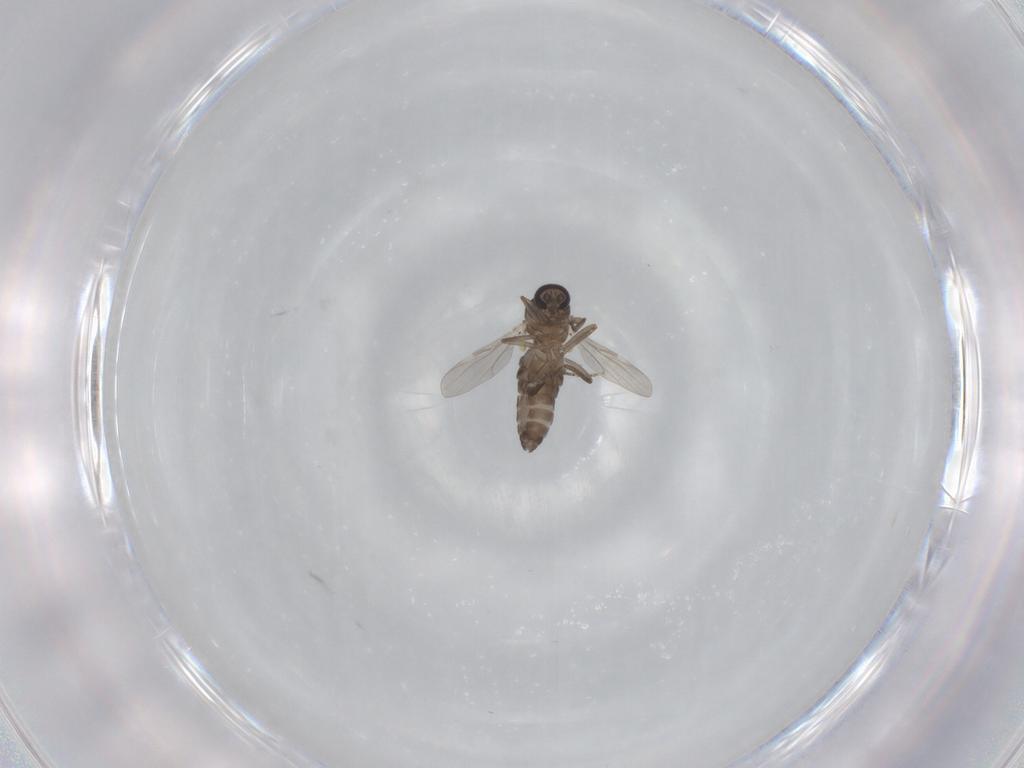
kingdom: Animalia
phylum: Arthropoda
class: Insecta
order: Diptera
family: Ceratopogonidae
